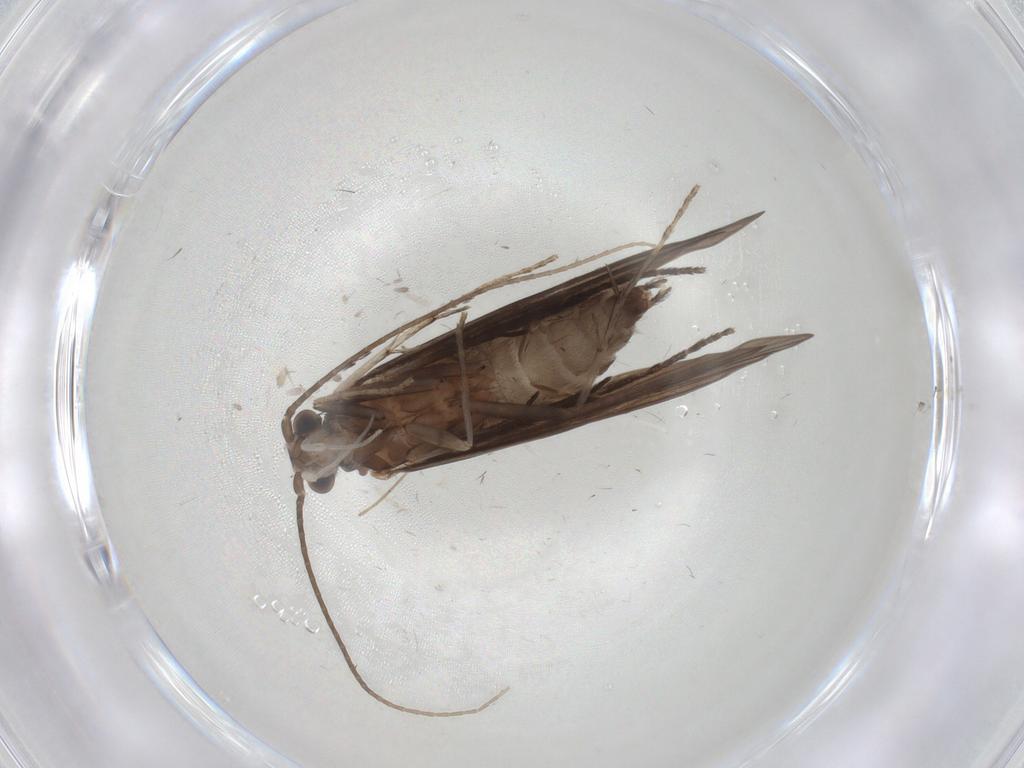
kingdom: Animalia
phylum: Arthropoda
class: Insecta
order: Trichoptera
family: Xiphocentronidae
